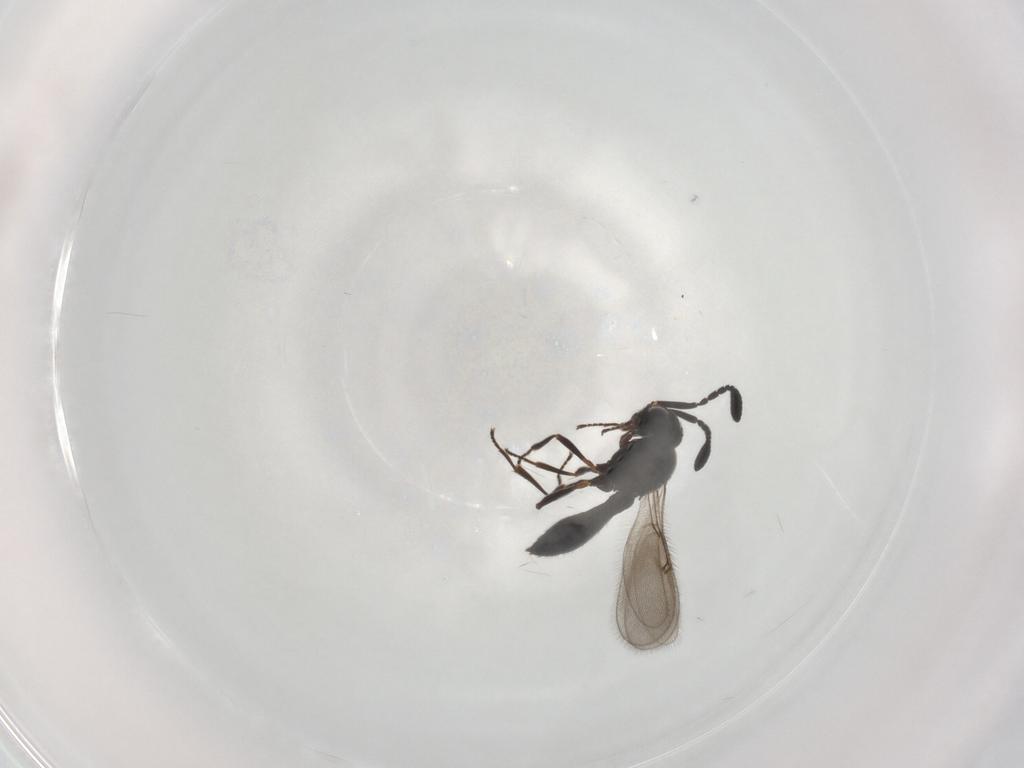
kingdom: Animalia
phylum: Arthropoda
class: Insecta
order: Hymenoptera
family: Scelionidae
